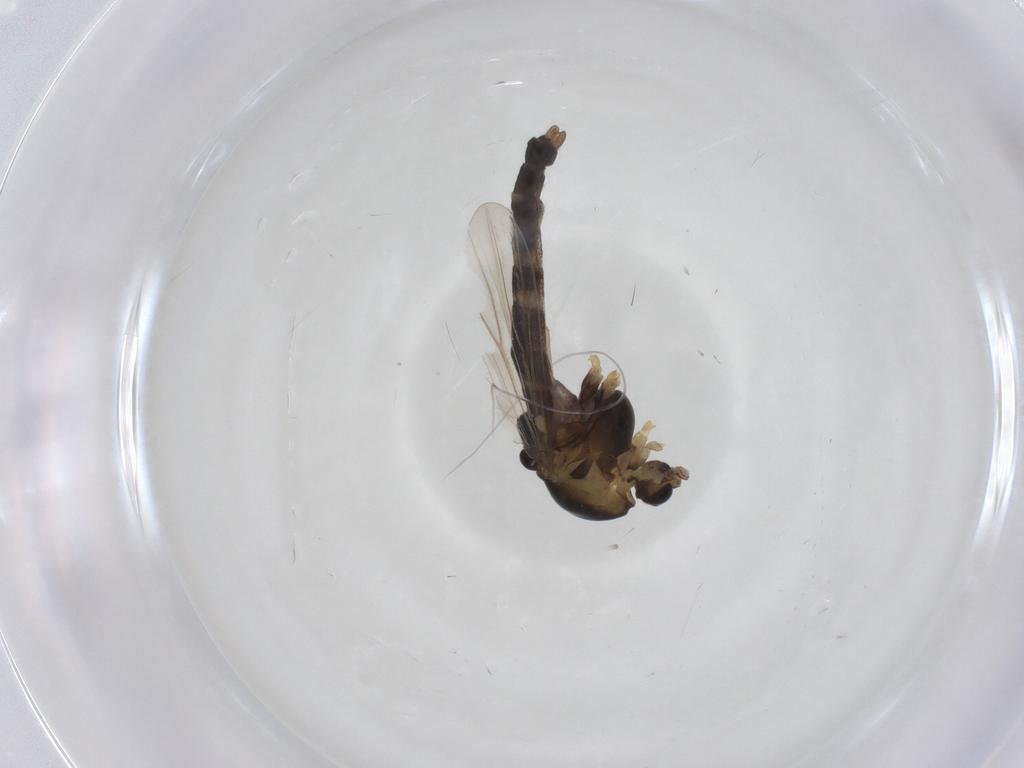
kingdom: Animalia
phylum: Arthropoda
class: Insecta
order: Diptera
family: Chironomidae
